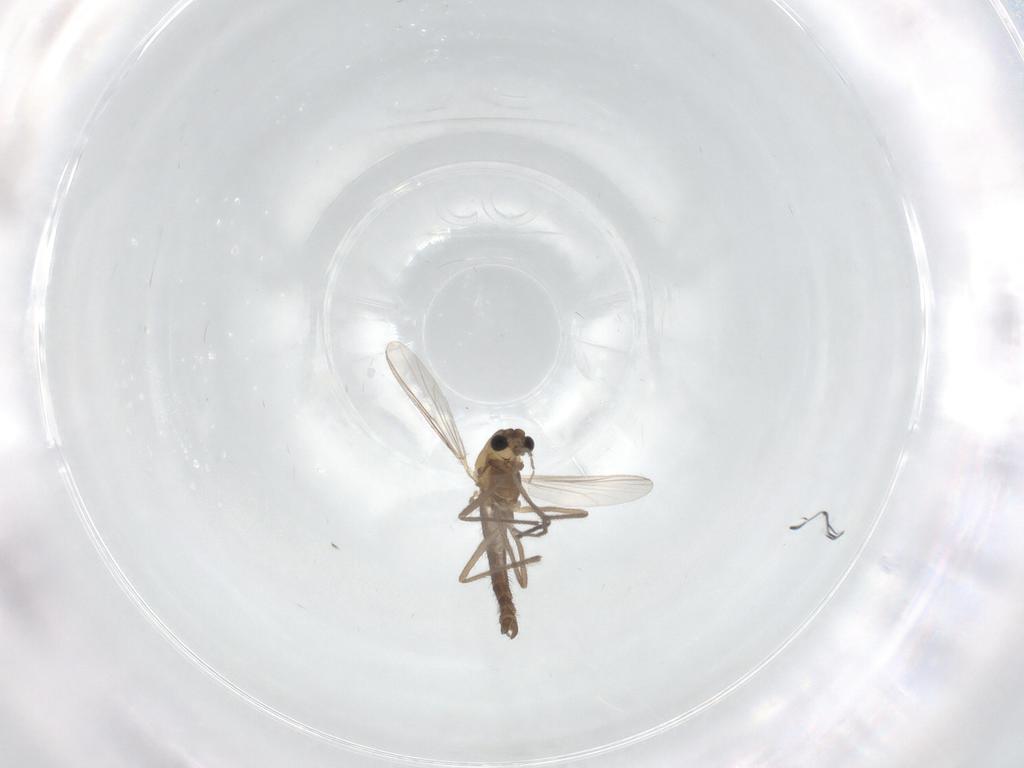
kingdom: Animalia
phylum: Arthropoda
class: Insecta
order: Diptera
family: Chironomidae
